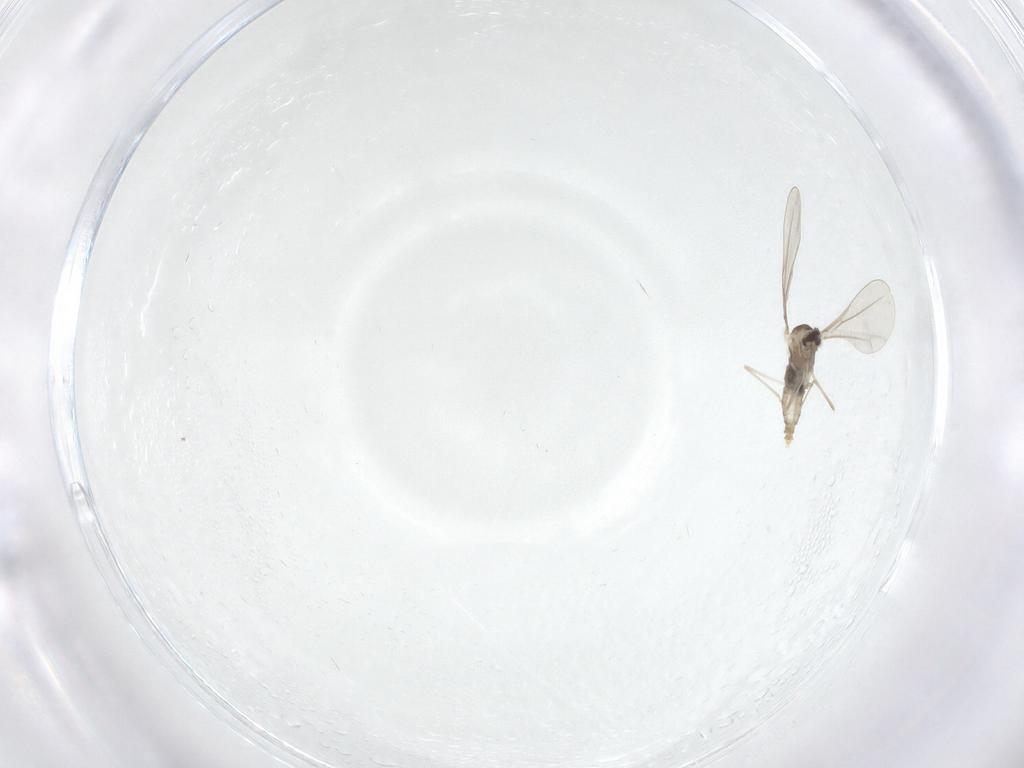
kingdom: Animalia
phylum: Arthropoda
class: Insecta
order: Diptera
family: Cecidomyiidae
